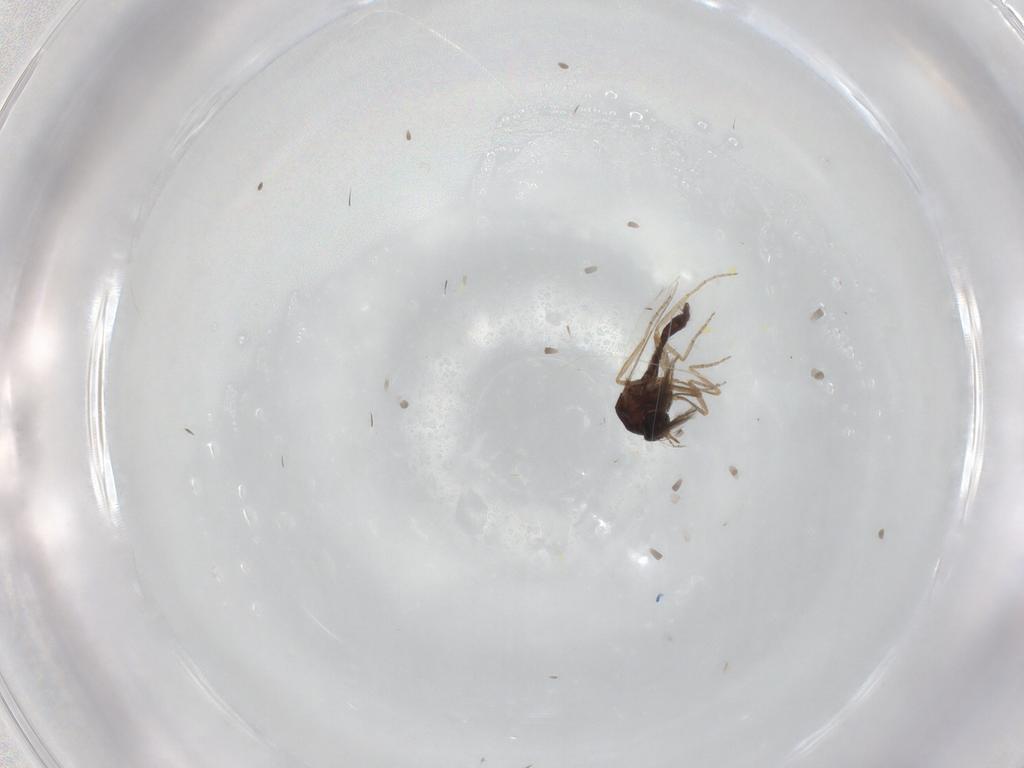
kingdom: Animalia
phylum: Arthropoda
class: Insecta
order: Diptera
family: Ceratopogonidae
